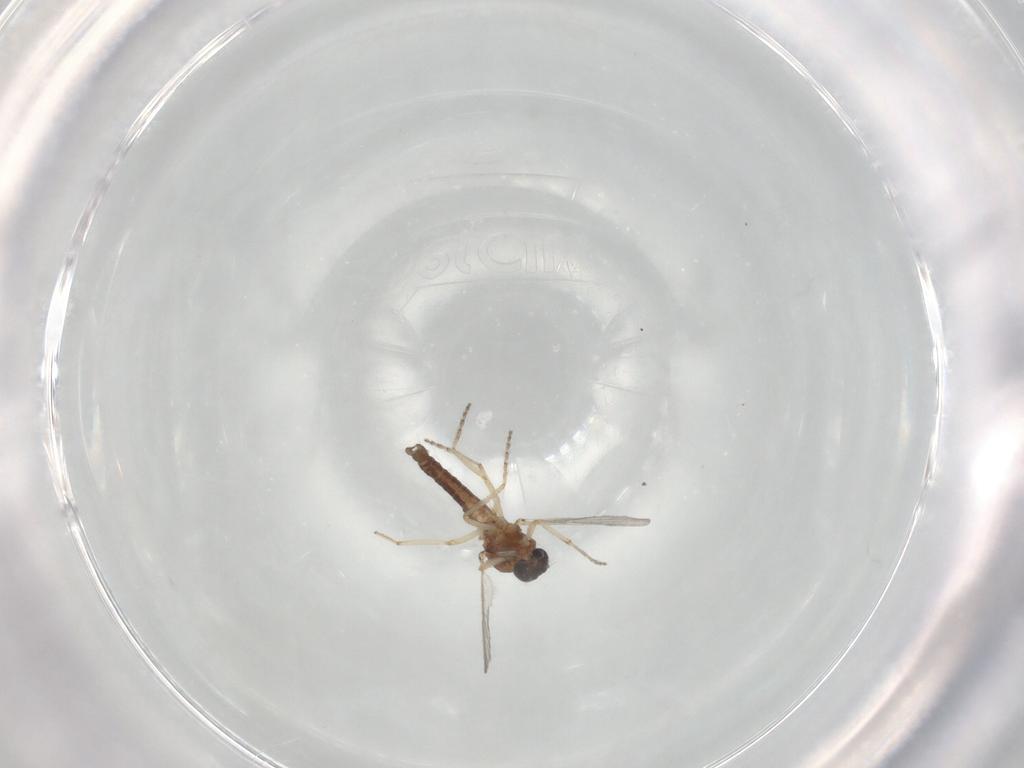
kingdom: Animalia
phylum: Arthropoda
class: Insecta
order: Diptera
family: Ceratopogonidae
